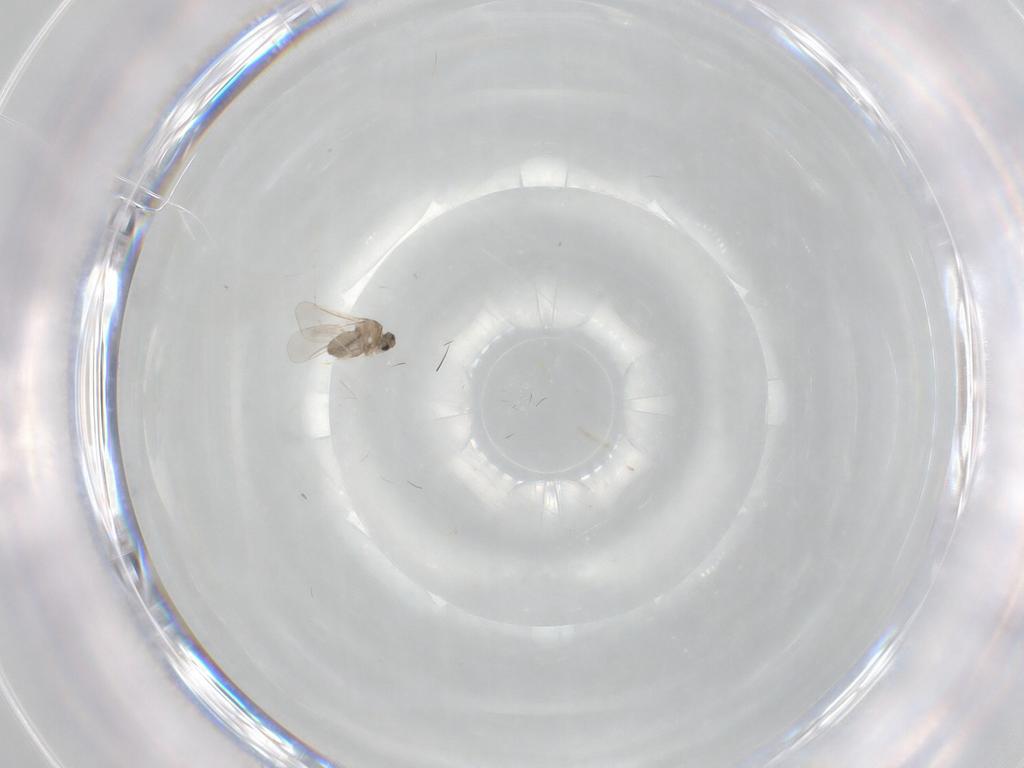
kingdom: Animalia
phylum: Arthropoda
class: Insecta
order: Diptera
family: Cecidomyiidae
